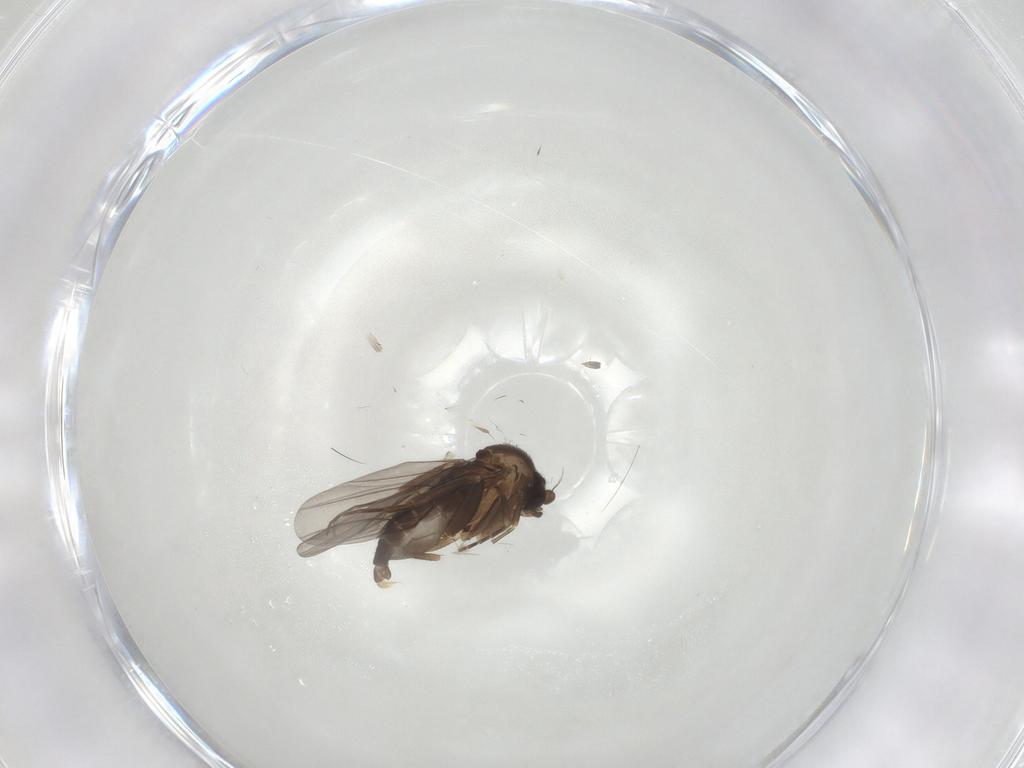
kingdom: Animalia
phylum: Arthropoda
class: Insecta
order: Diptera
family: Phoridae
